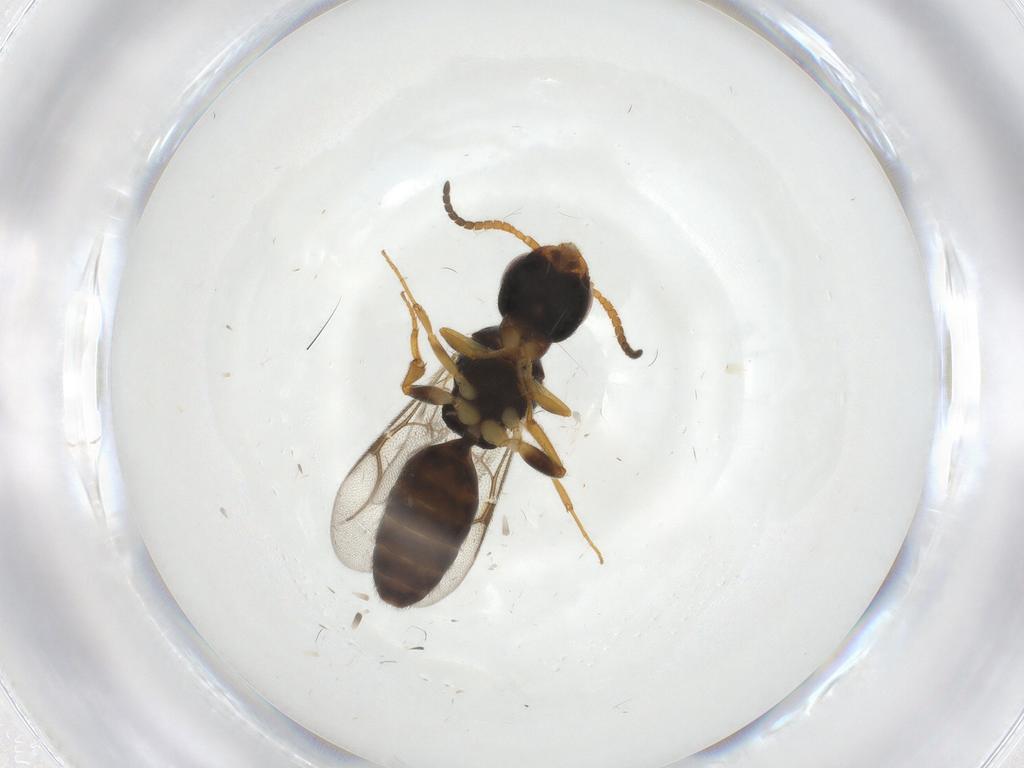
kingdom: Animalia
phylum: Arthropoda
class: Insecta
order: Hymenoptera
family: Bethylidae
